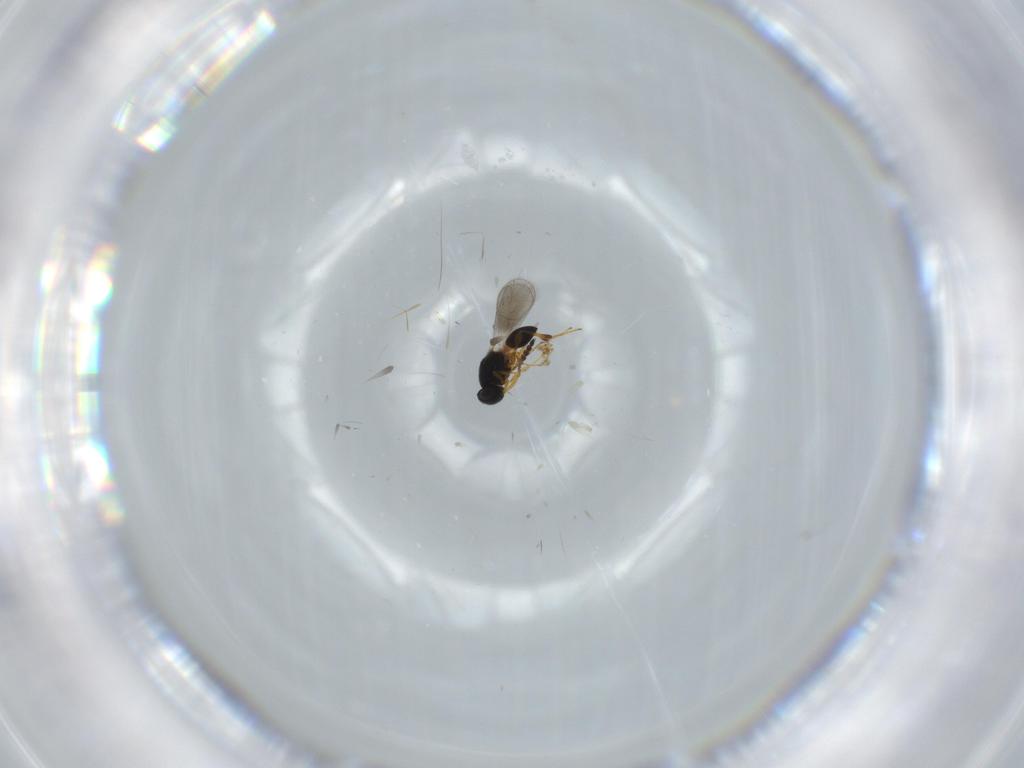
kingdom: Animalia
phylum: Arthropoda
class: Insecta
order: Hymenoptera
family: Platygastridae
